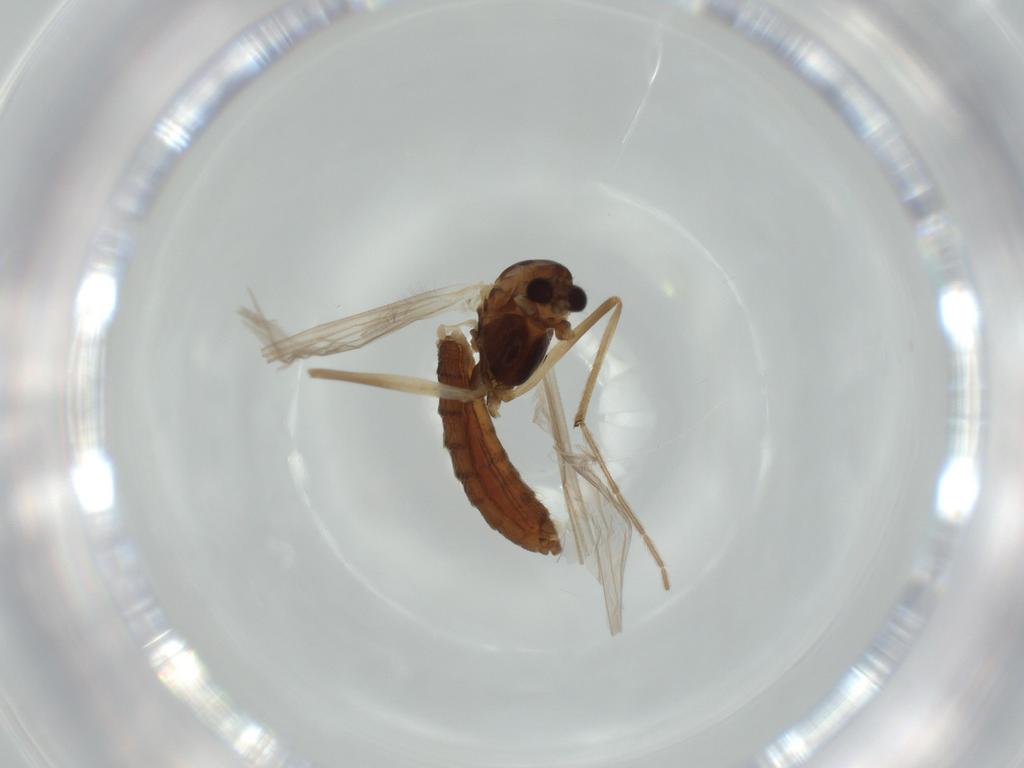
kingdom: Animalia
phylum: Arthropoda
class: Insecta
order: Diptera
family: Chironomidae
